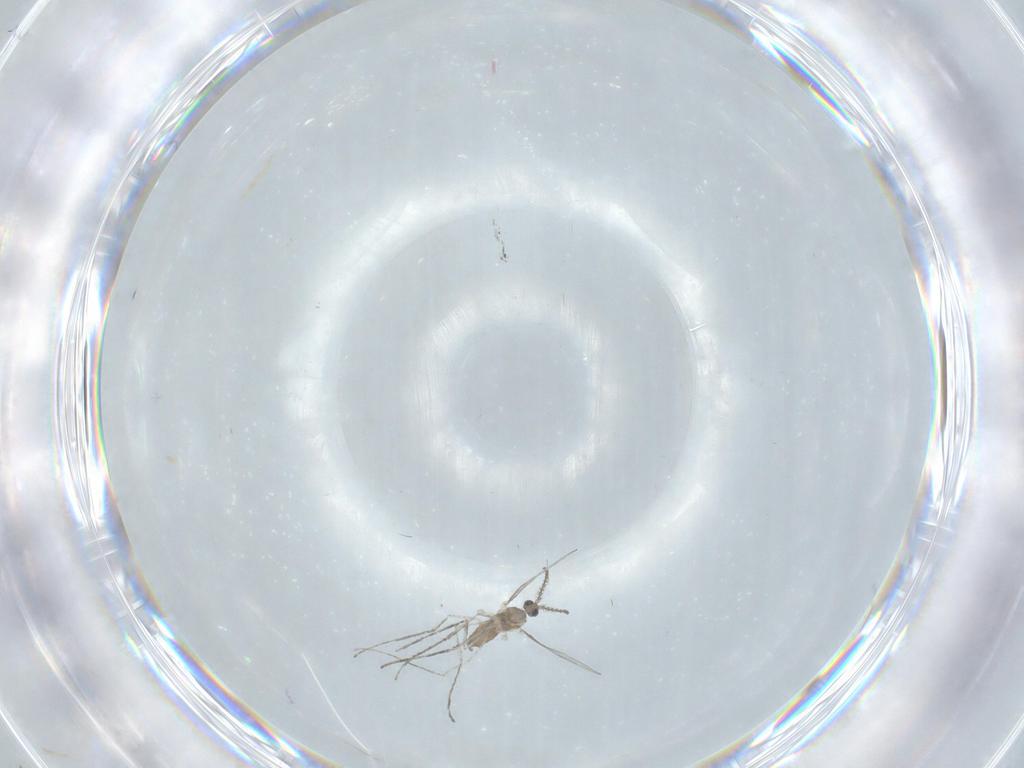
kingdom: Animalia
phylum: Arthropoda
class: Insecta
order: Diptera
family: Cecidomyiidae
